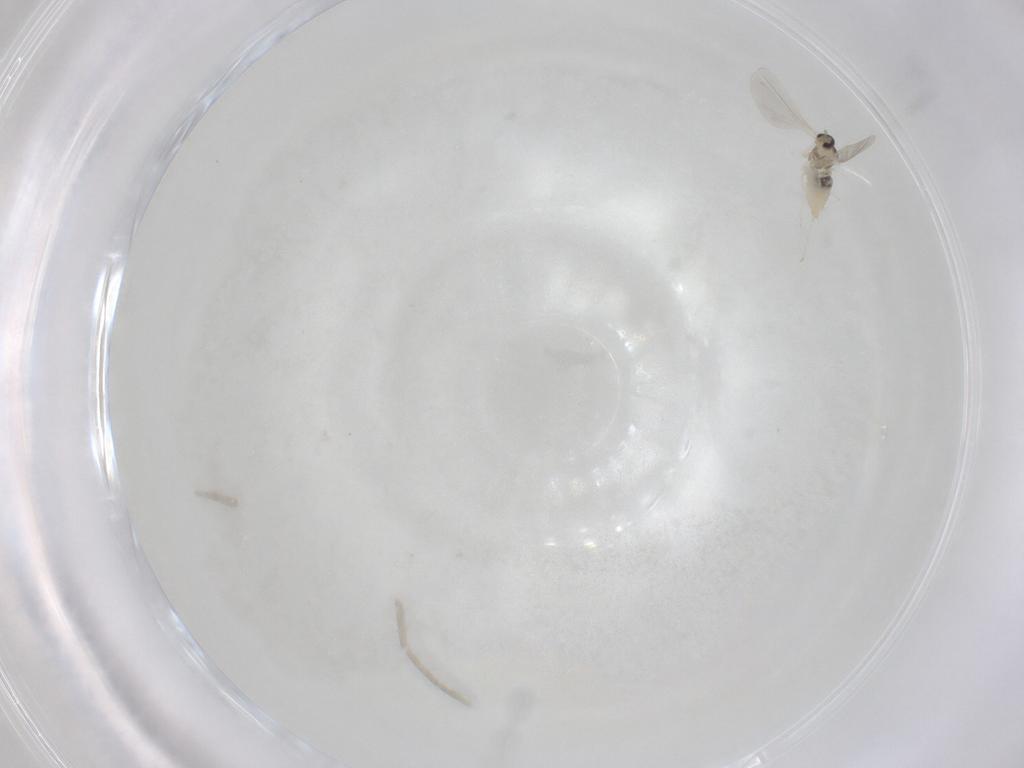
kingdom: Animalia
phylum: Arthropoda
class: Insecta
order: Diptera
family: Cecidomyiidae
